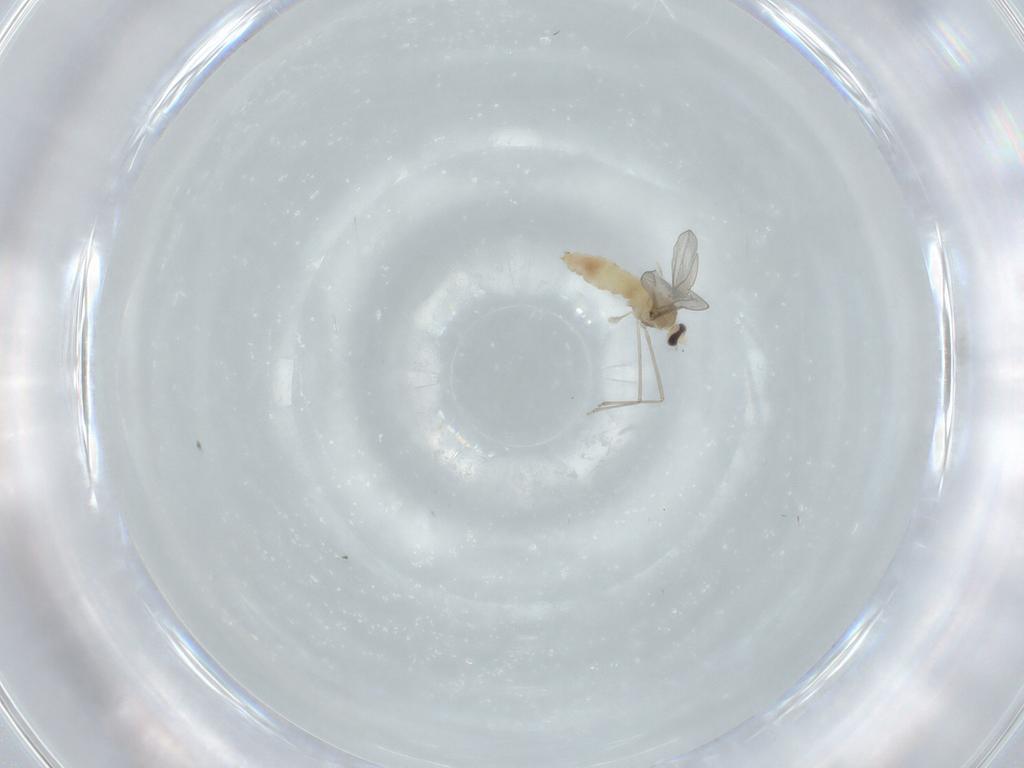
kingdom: Animalia
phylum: Arthropoda
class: Insecta
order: Diptera
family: Cecidomyiidae
